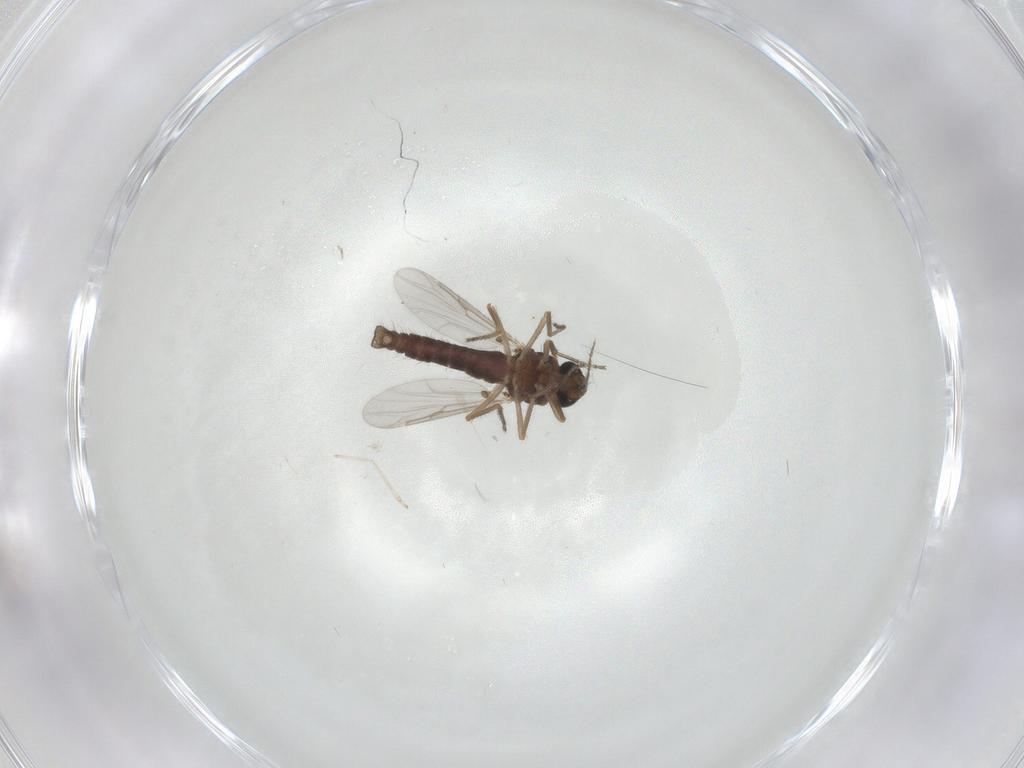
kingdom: Animalia
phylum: Arthropoda
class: Insecta
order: Diptera
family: Ceratopogonidae
